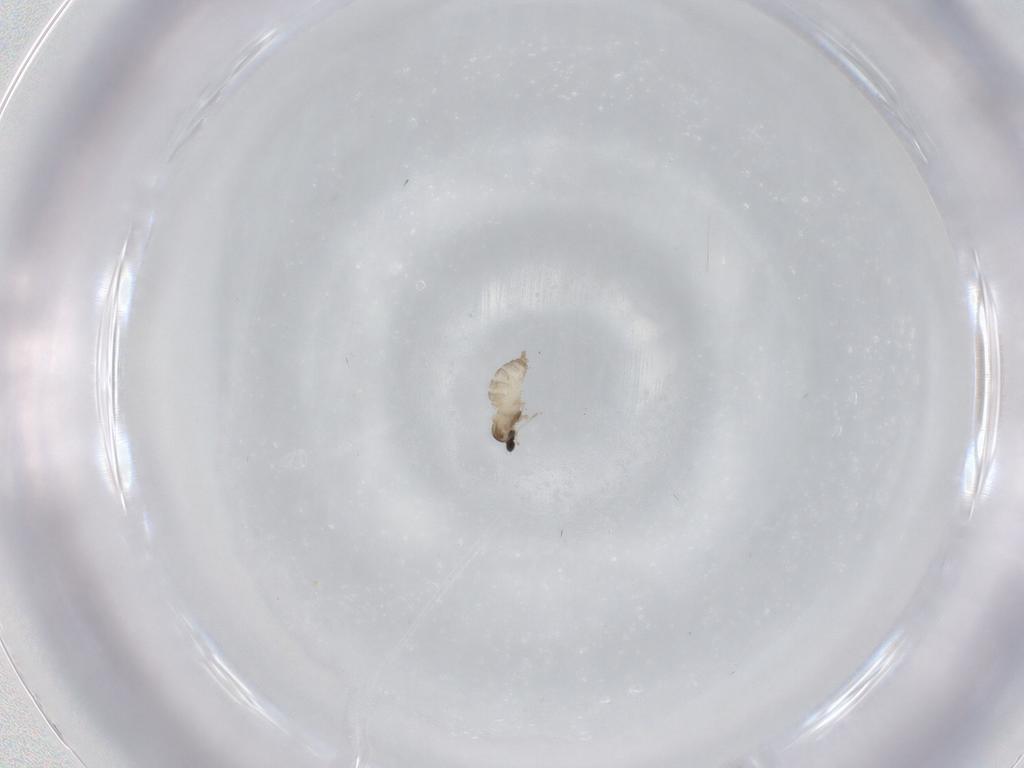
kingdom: Animalia
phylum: Arthropoda
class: Insecta
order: Diptera
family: Cecidomyiidae
